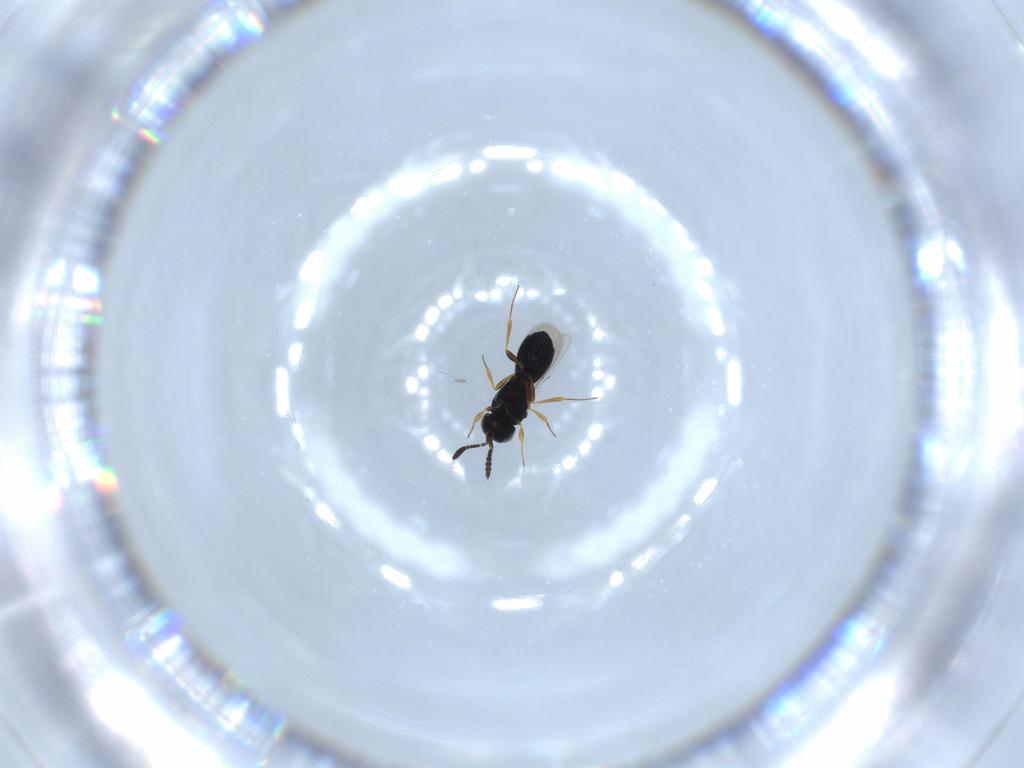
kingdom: Animalia
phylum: Arthropoda
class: Insecta
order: Hymenoptera
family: Scelionidae
